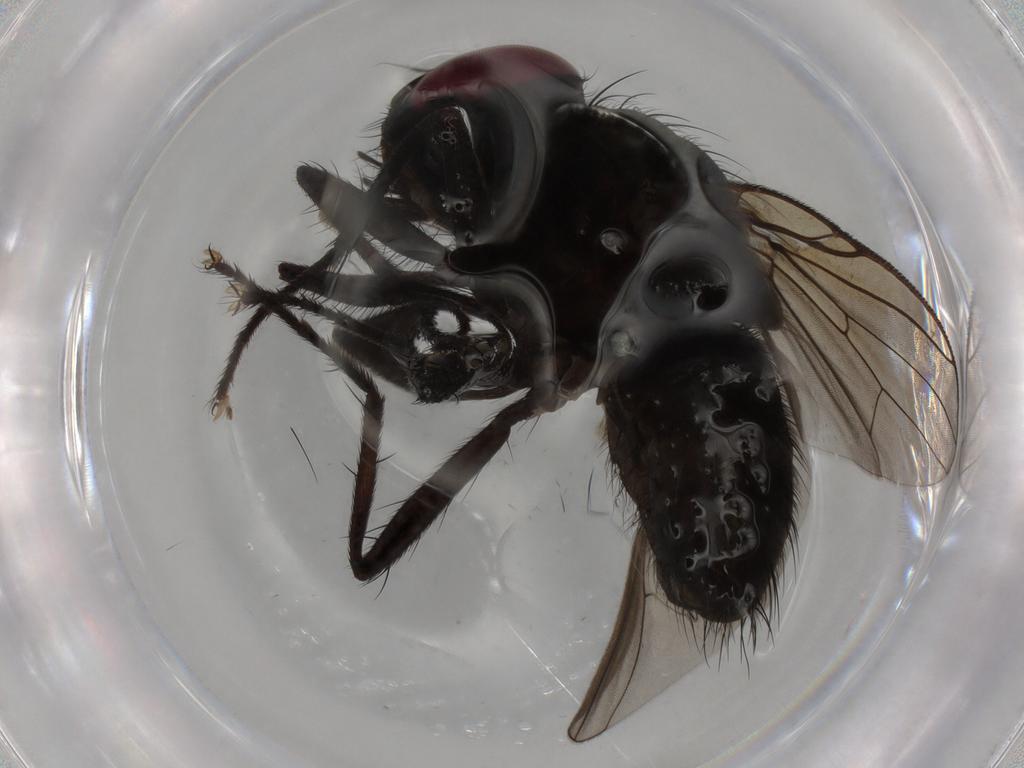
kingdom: Animalia
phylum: Arthropoda
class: Insecta
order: Diptera
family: Muscidae
